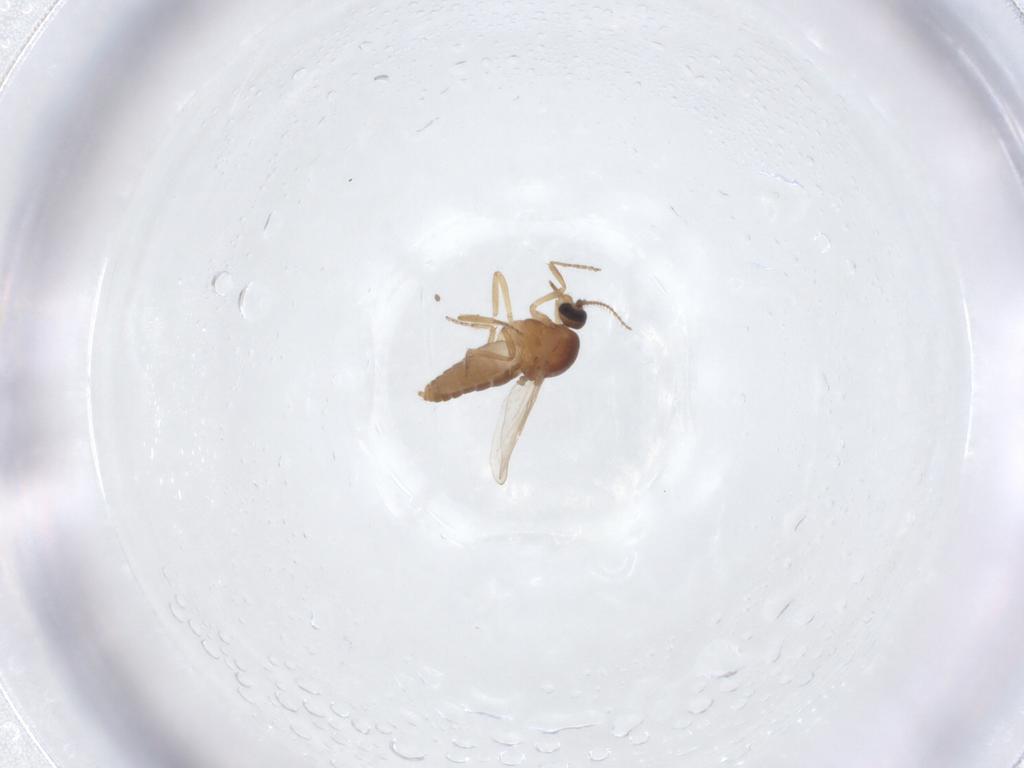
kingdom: Animalia
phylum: Arthropoda
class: Insecta
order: Diptera
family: Ceratopogonidae
